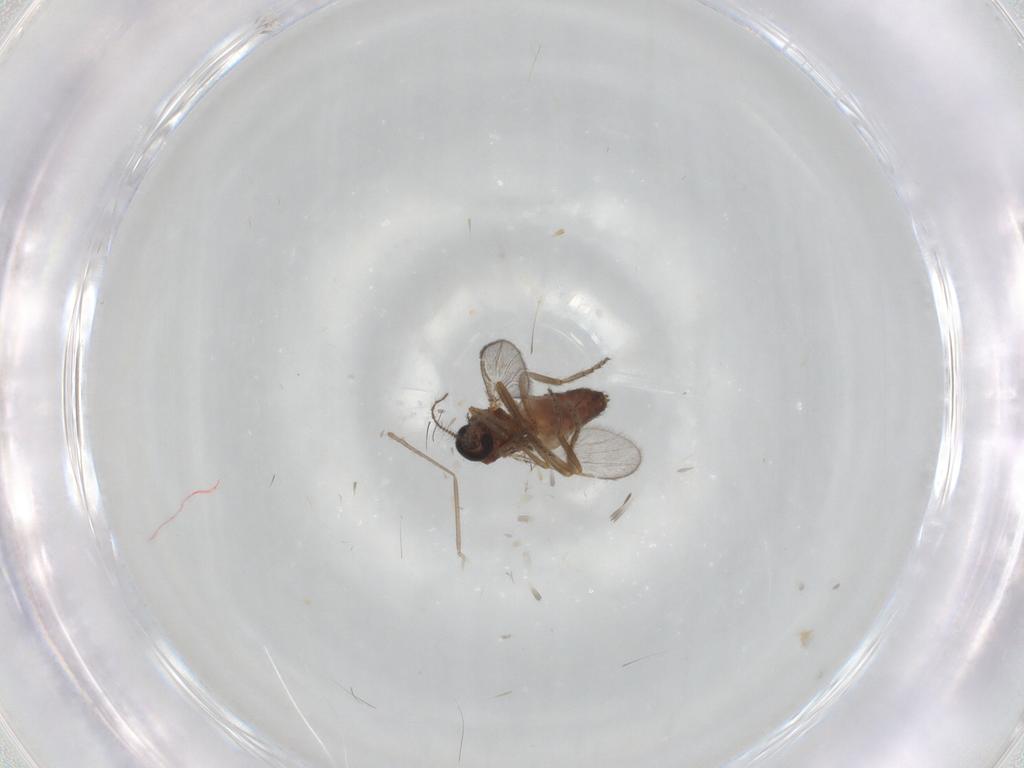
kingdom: Animalia
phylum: Arthropoda
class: Insecta
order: Diptera
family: Ceratopogonidae
